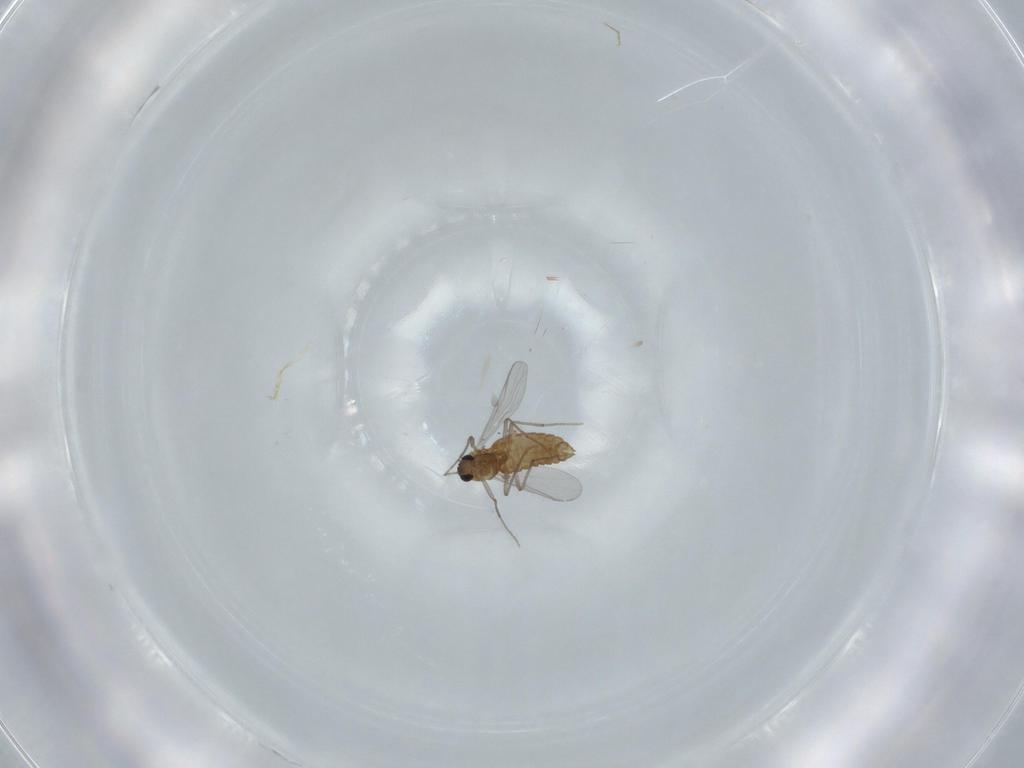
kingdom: Animalia
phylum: Arthropoda
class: Insecta
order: Diptera
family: Chironomidae
